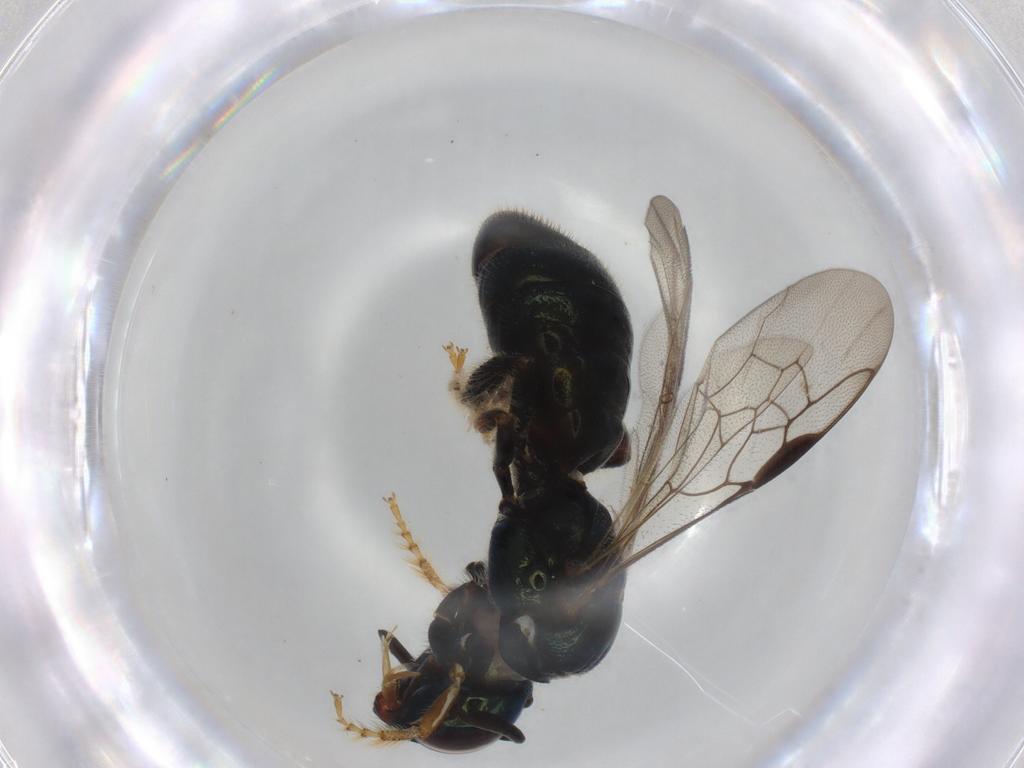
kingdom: Animalia
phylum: Arthropoda
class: Insecta
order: Hymenoptera
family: Apidae
